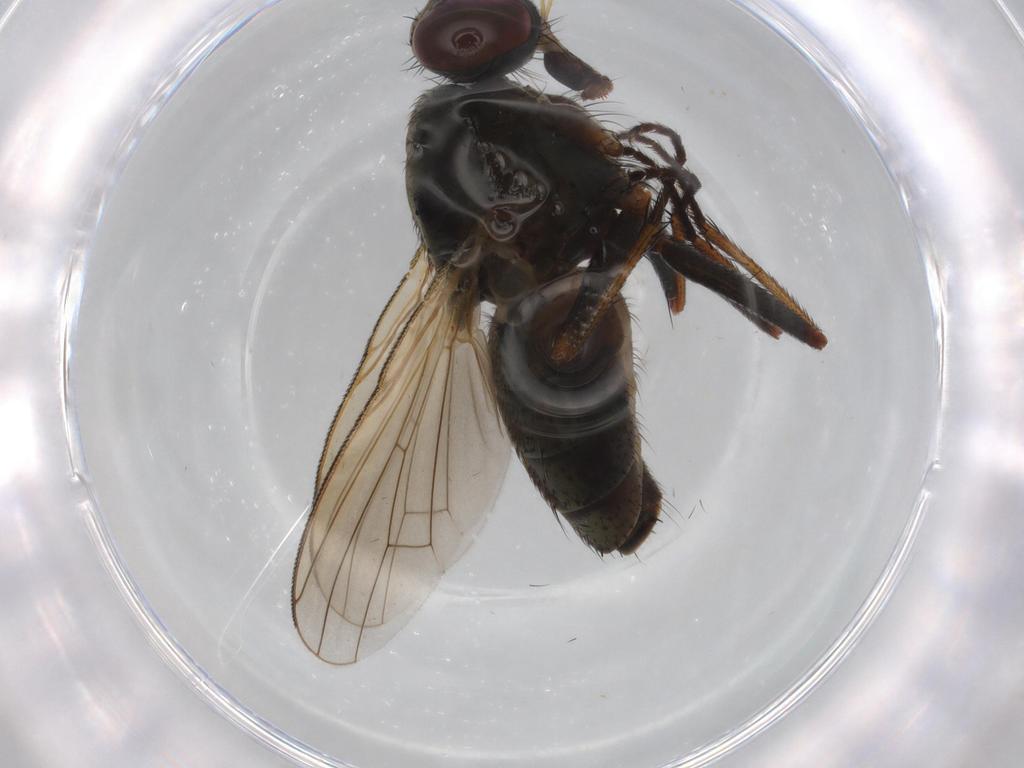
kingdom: Animalia
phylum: Arthropoda
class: Insecta
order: Diptera
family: Muscidae
